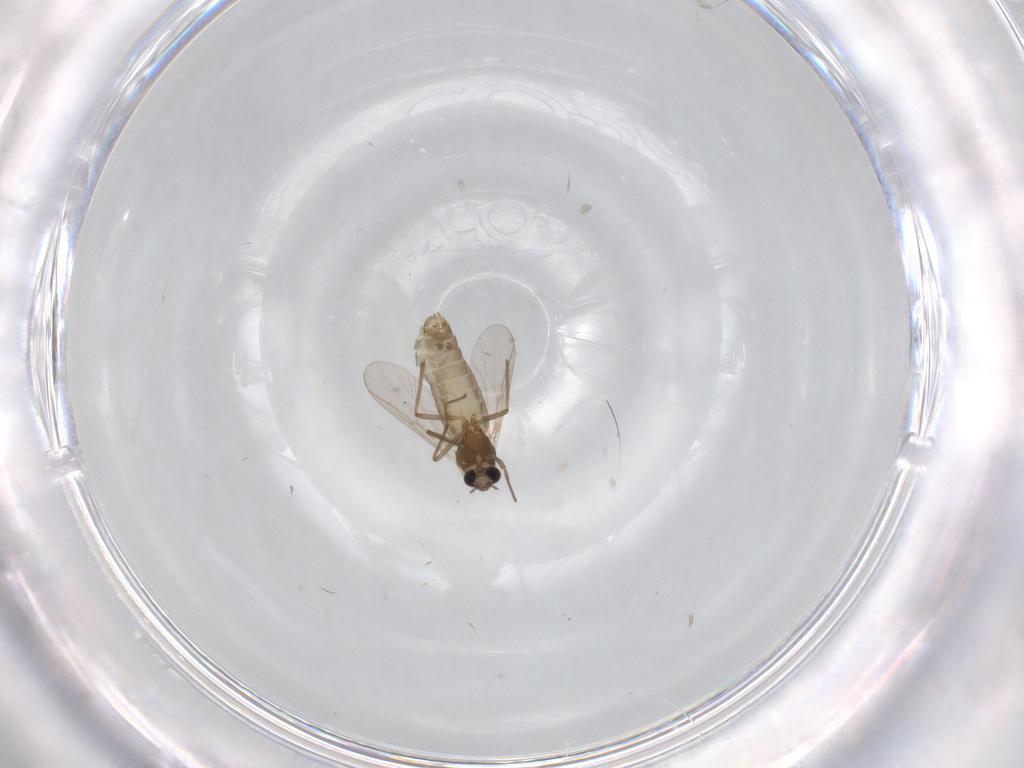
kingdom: Animalia
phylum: Arthropoda
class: Insecta
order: Diptera
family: Chironomidae
